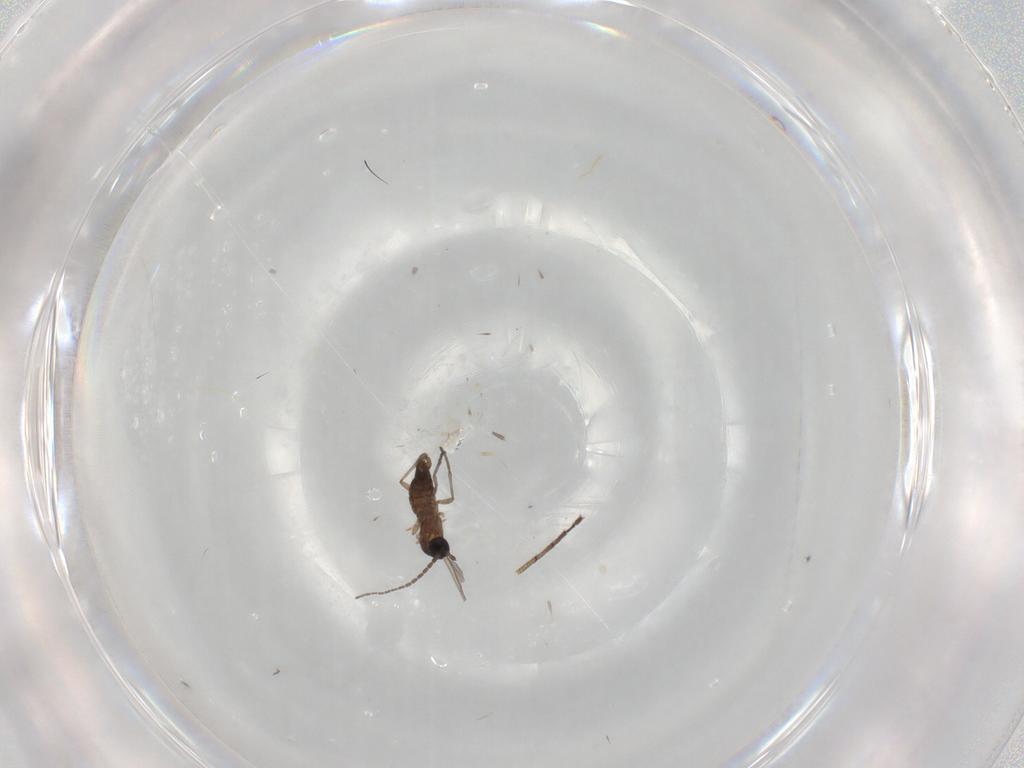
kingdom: Animalia
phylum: Arthropoda
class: Insecta
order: Diptera
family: Sciaridae
